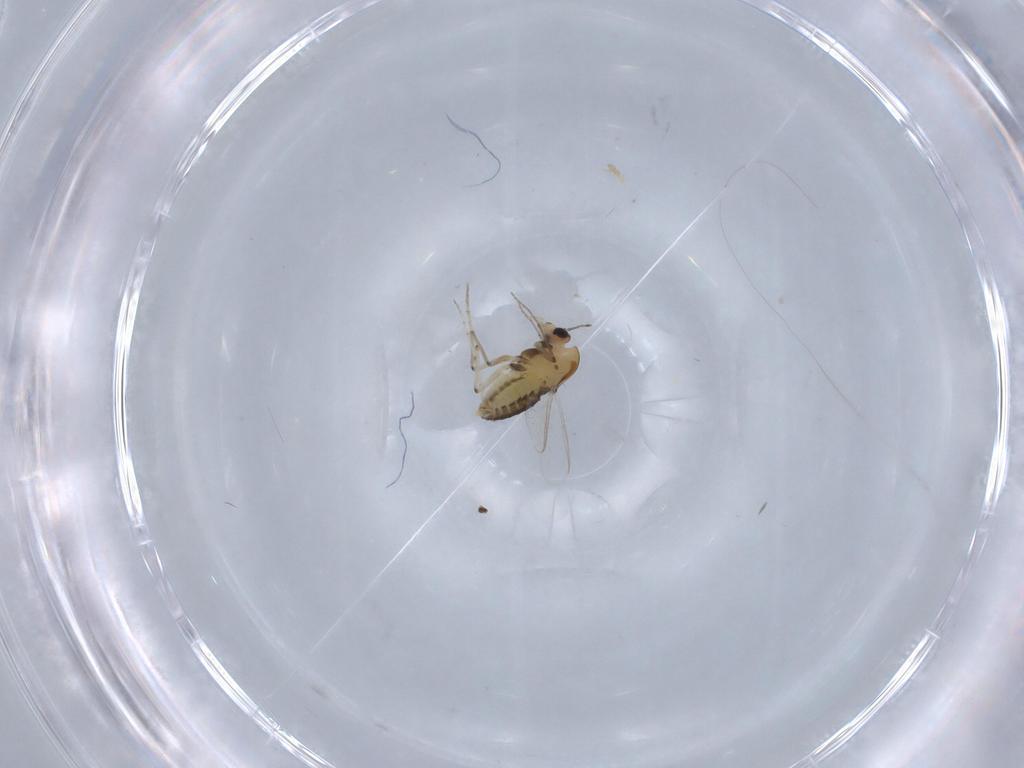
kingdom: Animalia
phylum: Arthropoda
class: Insecta
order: Diptera
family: Chironomidae
